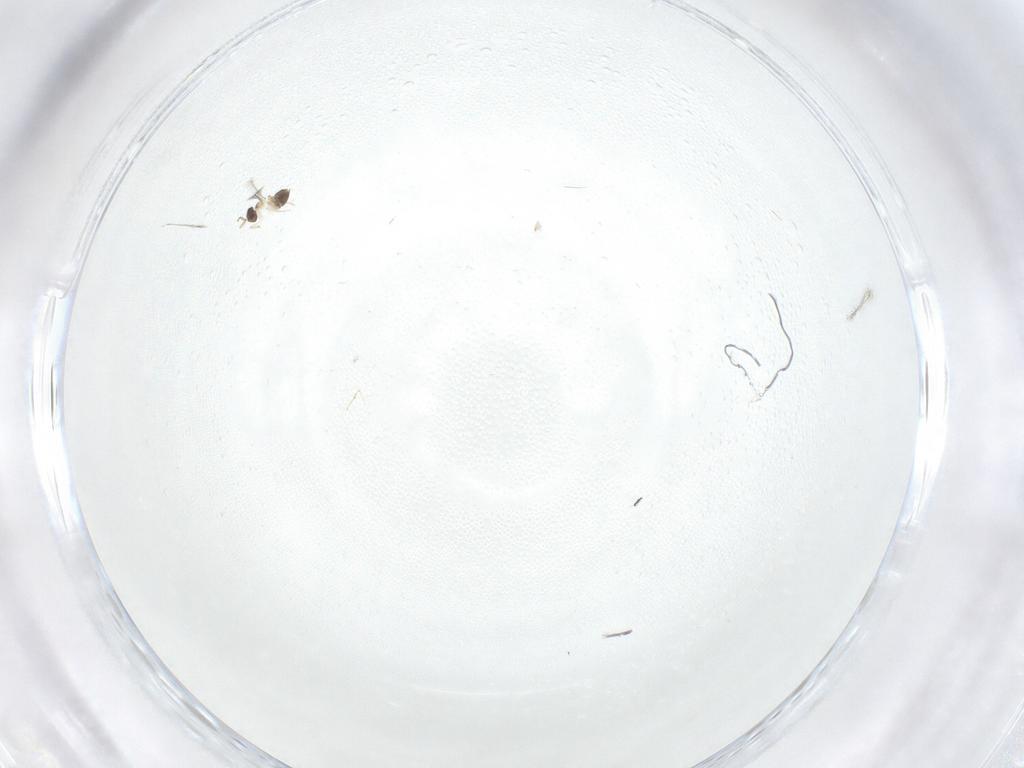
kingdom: Animalia
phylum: Arthropoda
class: Insecta
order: Diptera
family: Chironomidae
